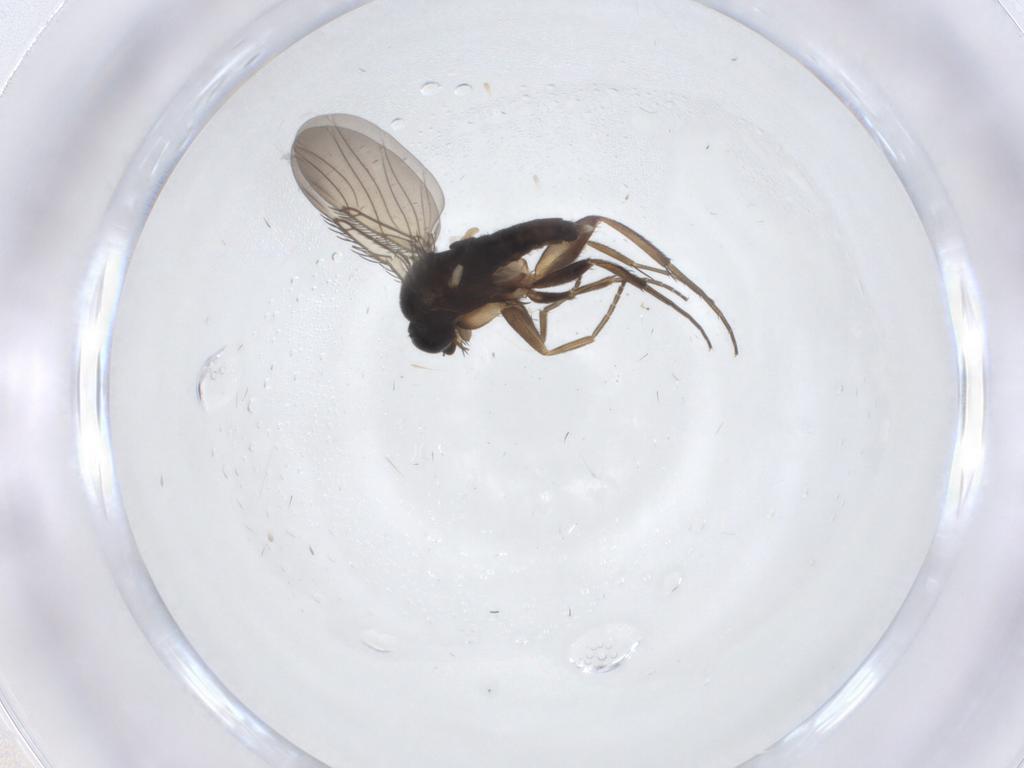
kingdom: Animalia
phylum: Arthropoda
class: Insecta
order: Diptera
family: Phoridae
